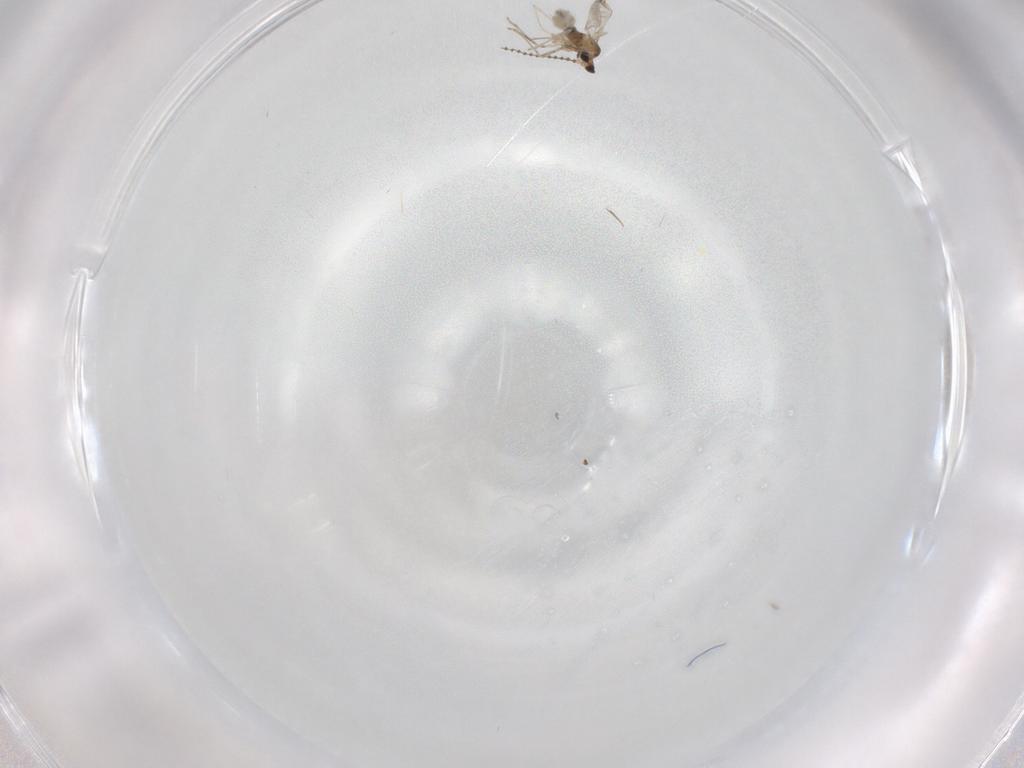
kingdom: Animalia
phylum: Arthropoda
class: Insecta
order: Diptera
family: Cecidomyiidae
